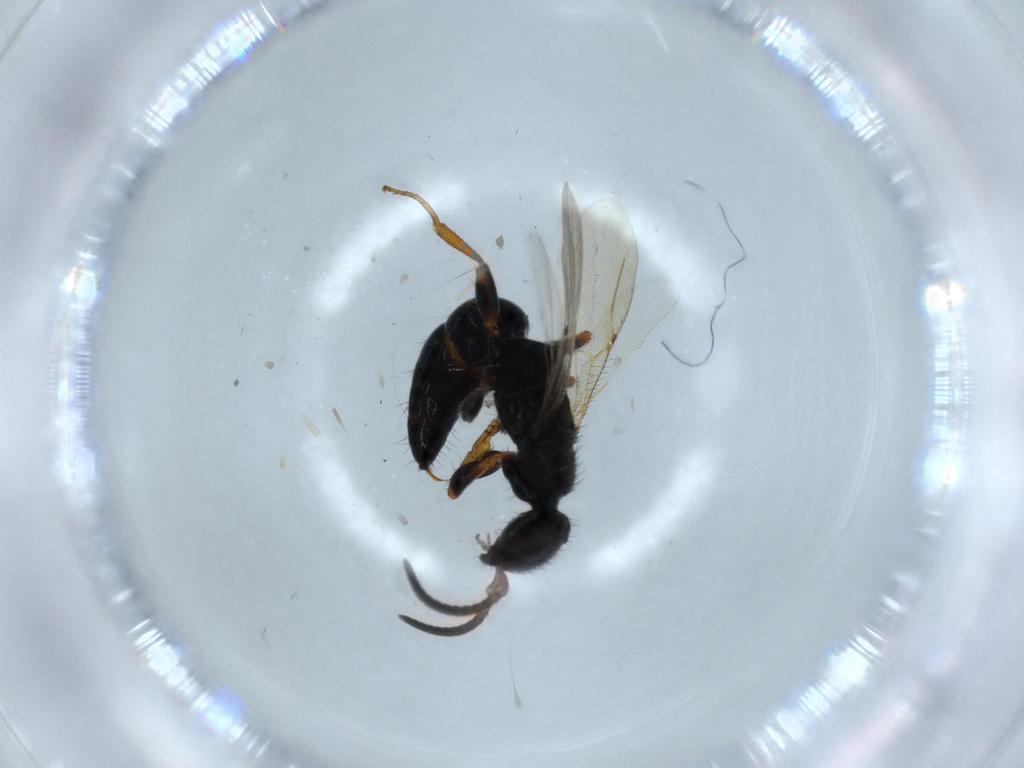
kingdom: Animalia
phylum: Arthropoda
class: Insecta
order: Hymenoptera
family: Bethylidae
